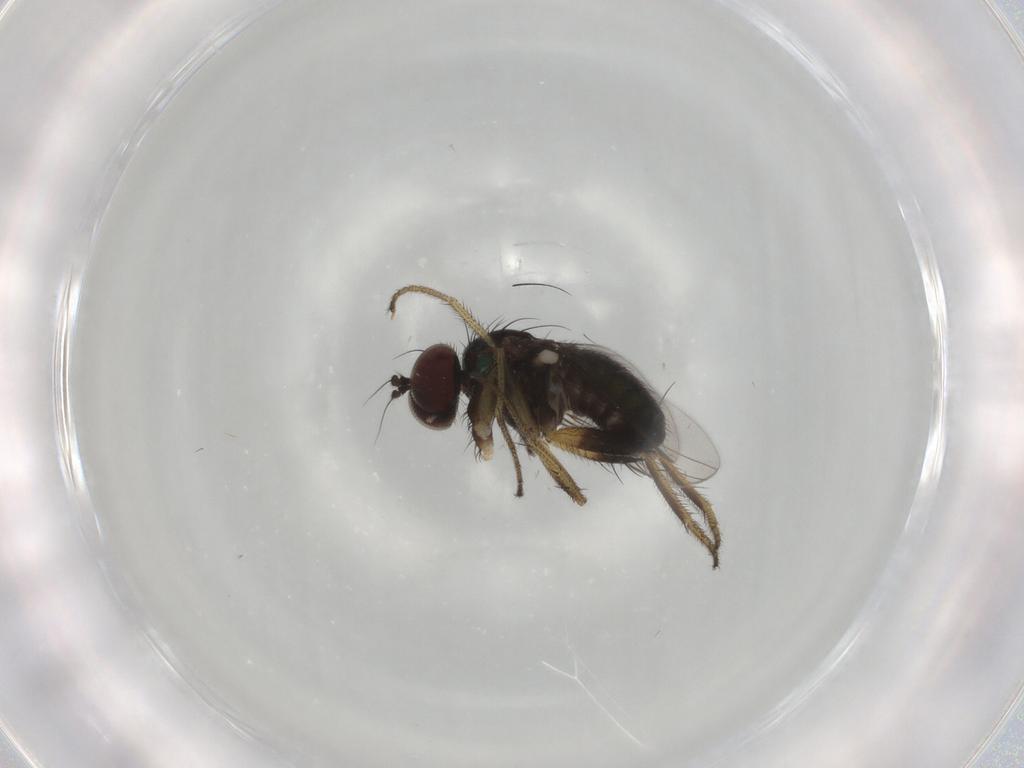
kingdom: Animalia
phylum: Arthropoda
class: Insecta
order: Diptera
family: Dolichopodidae
